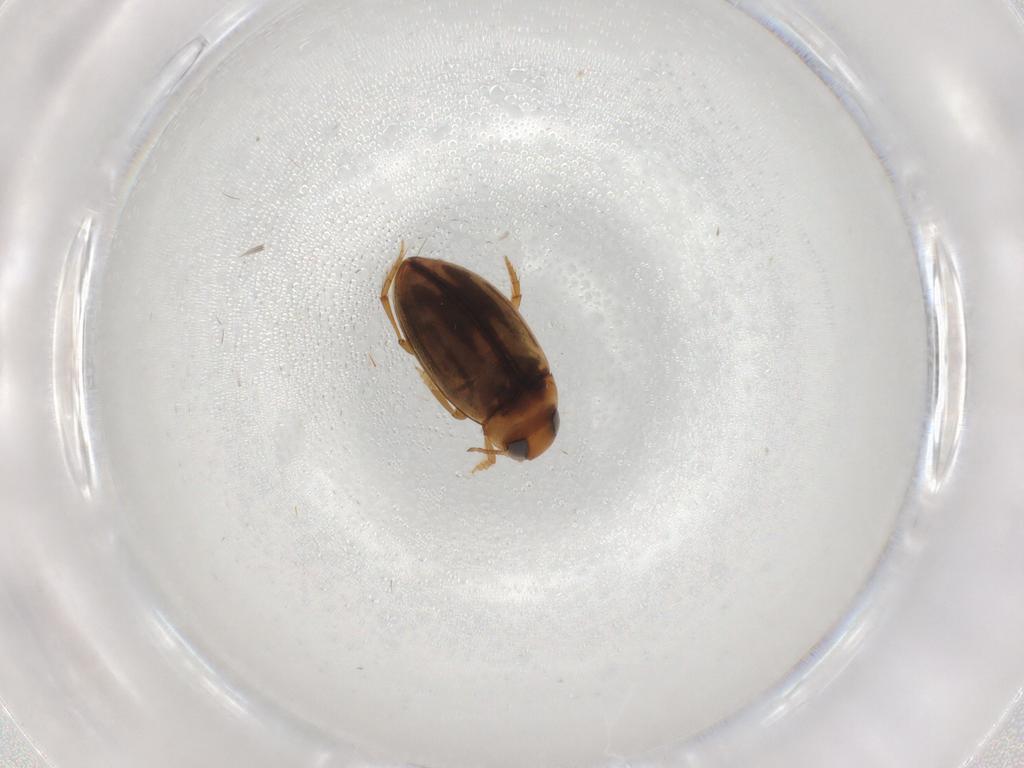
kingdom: Animalia
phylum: Arthropoda
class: Insecta
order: Coleoptera
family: Dytiscidae
